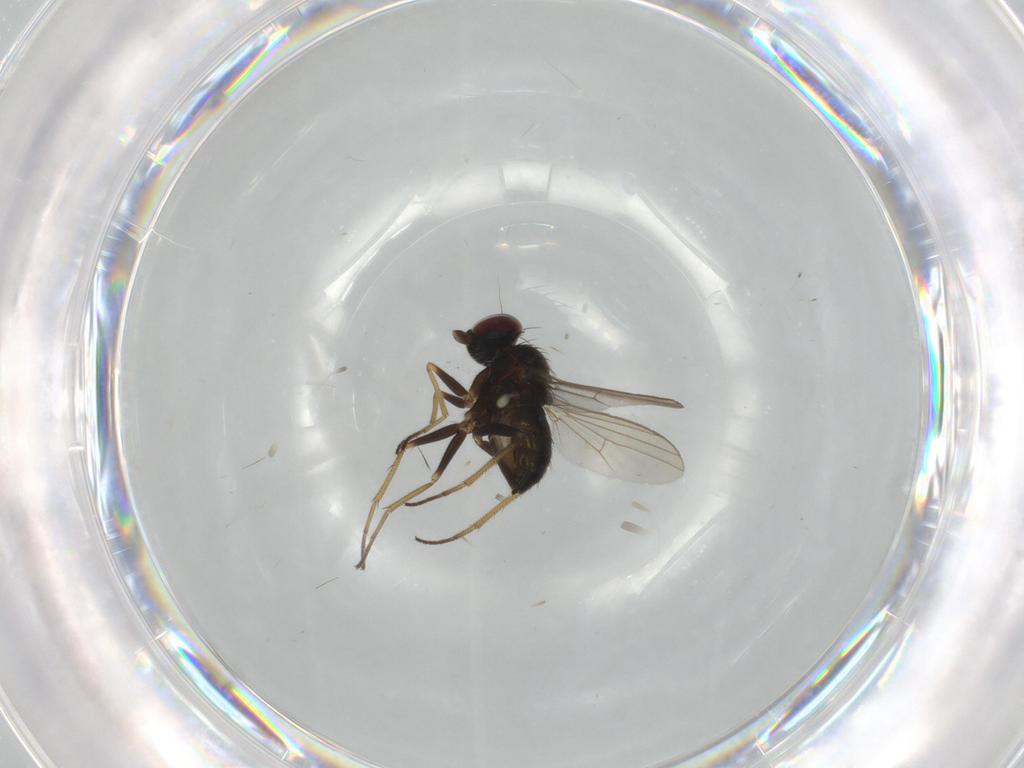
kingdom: Animalia
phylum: Arthropoda
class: Insecta
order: Diptera
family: Dolichopodidae
